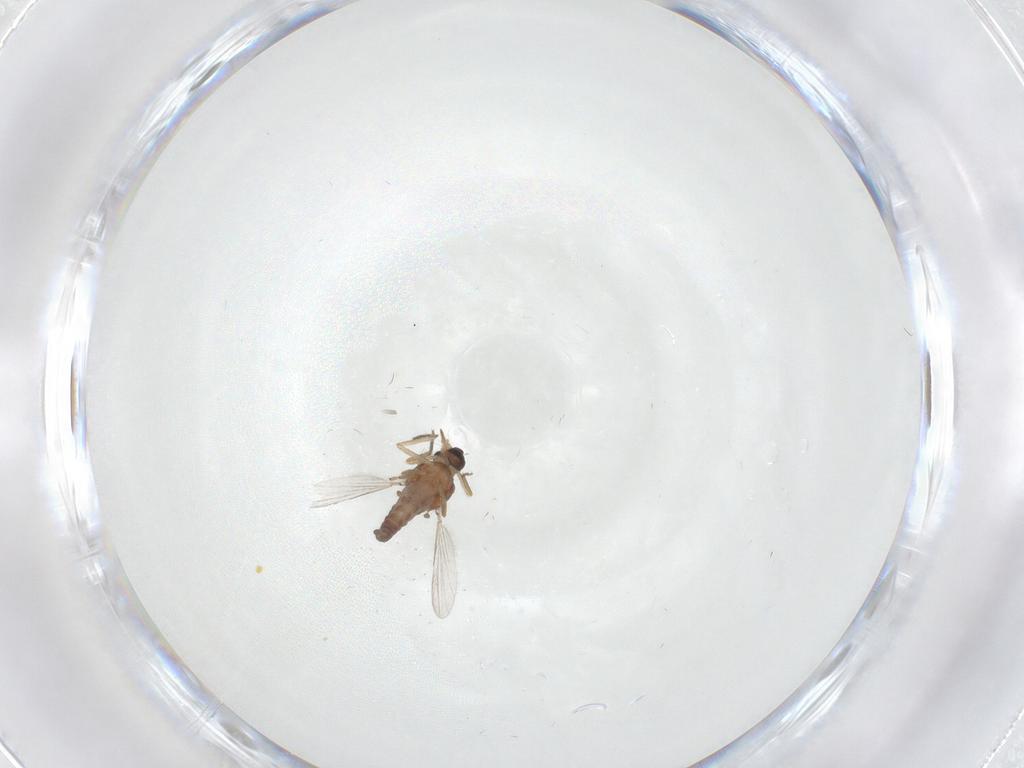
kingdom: Animalia
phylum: Arthropoda
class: Insecta
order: Diptera
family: Ceratopogonidae
